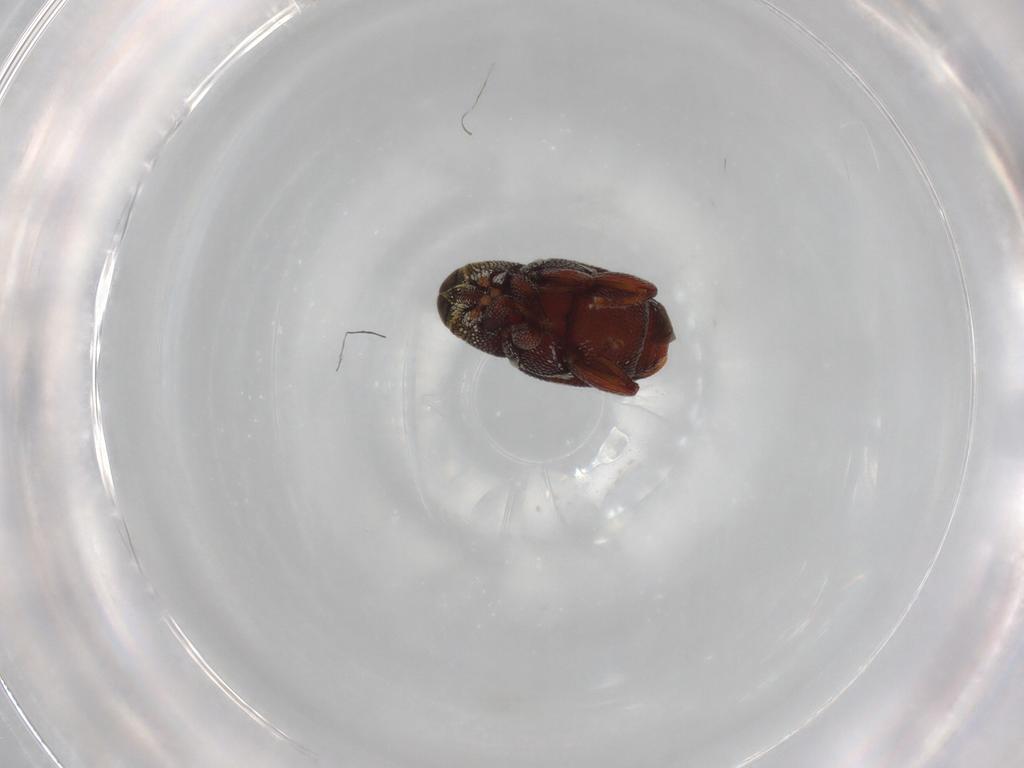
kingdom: Animalia
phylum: Arthropoda
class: Insecta
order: Coleoptera
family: Curculionidae
